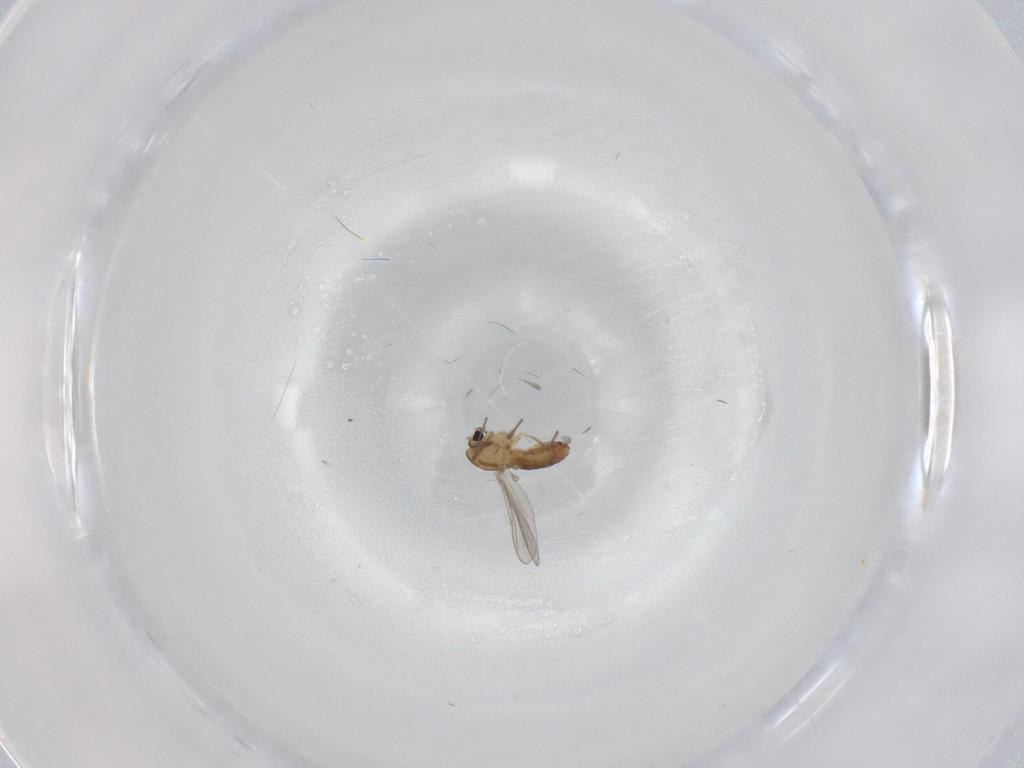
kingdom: Animalia
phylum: Arthropoda
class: Insecta
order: Diptera
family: Chironomidae
